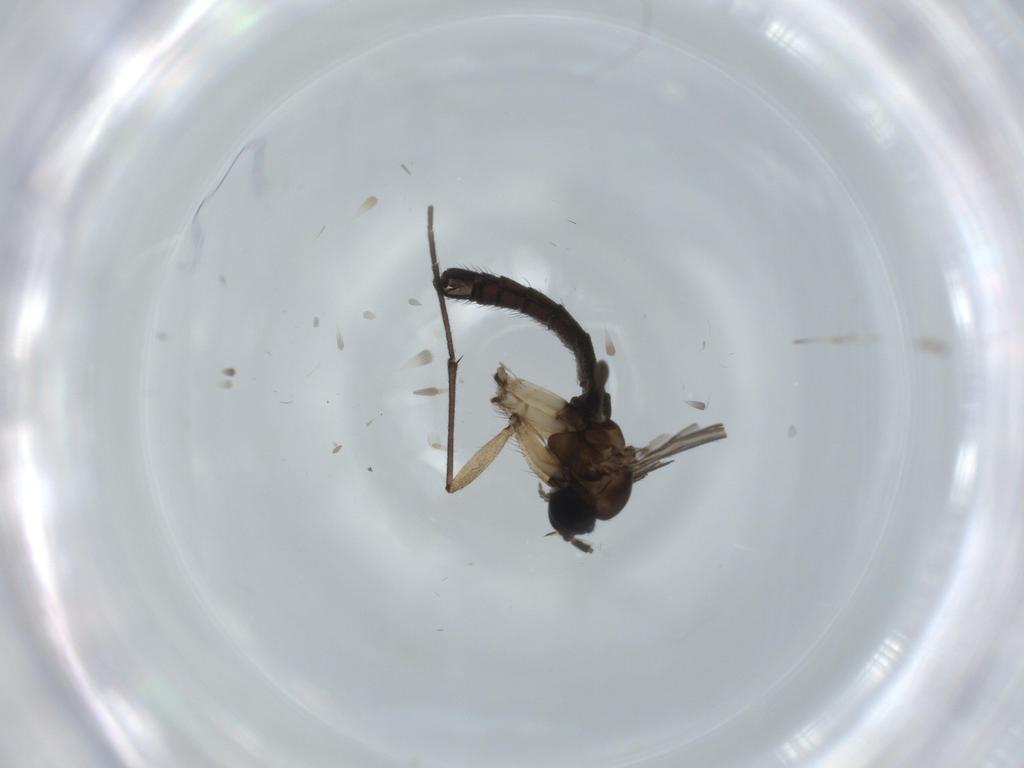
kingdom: Animalia
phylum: Arthropoda
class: Insecta
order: Diptera
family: Sciaridae
